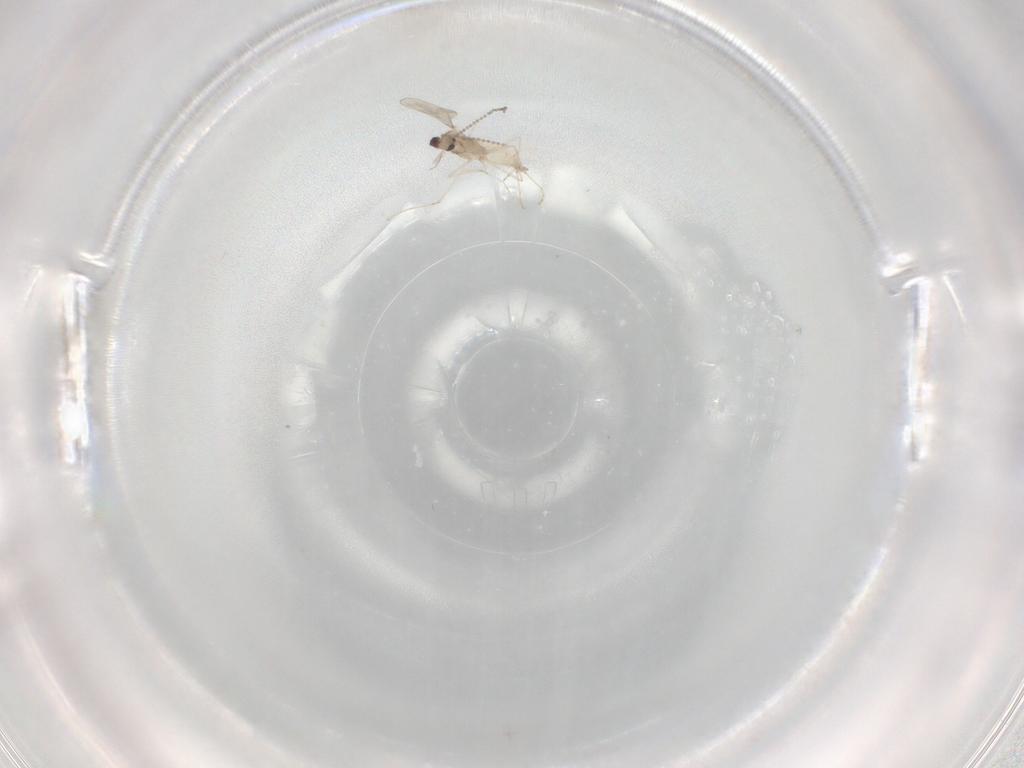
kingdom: Animalia
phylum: Arthropoda
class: Insecta
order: Diptera
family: Cecidomyiidae
